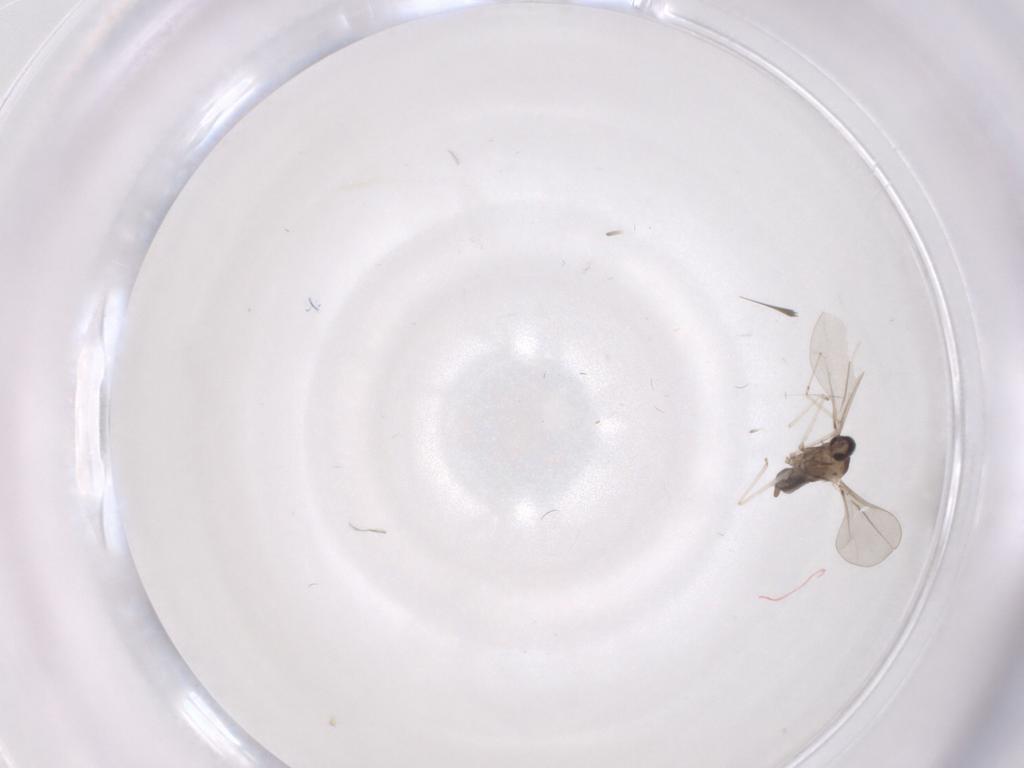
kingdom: Animalia
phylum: Arthropoda
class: Insecta
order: Diptera
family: Cecidomyiidae
